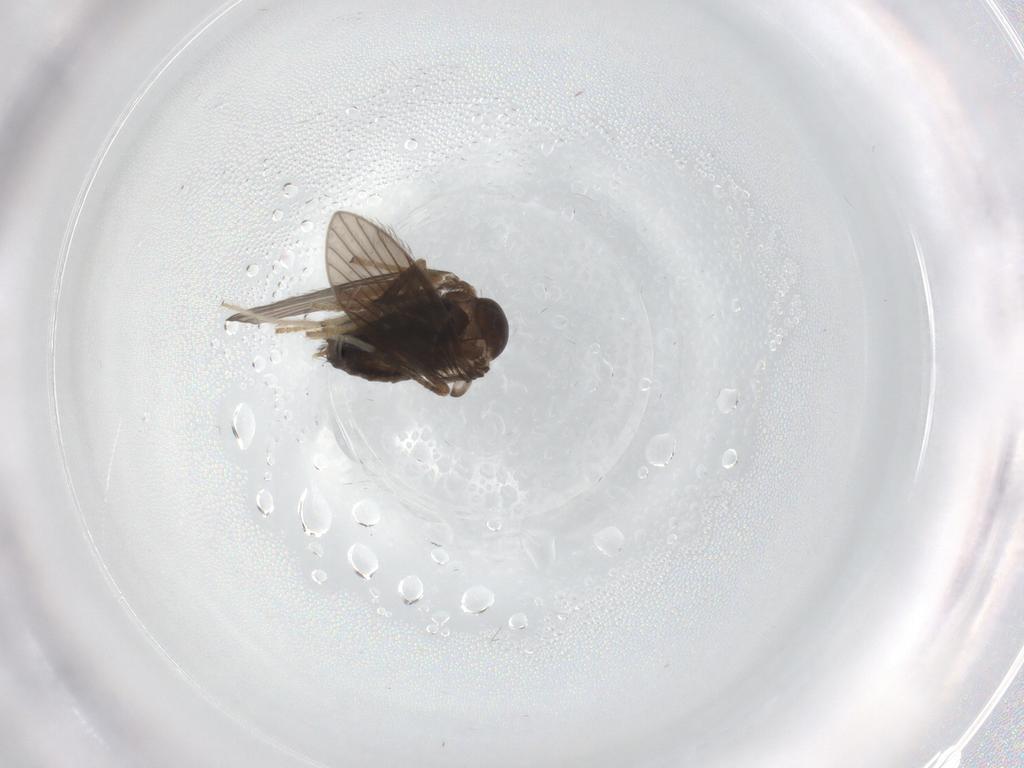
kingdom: Animalia
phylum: Arthropoda
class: Insecta
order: Diptera
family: Psychodidae
